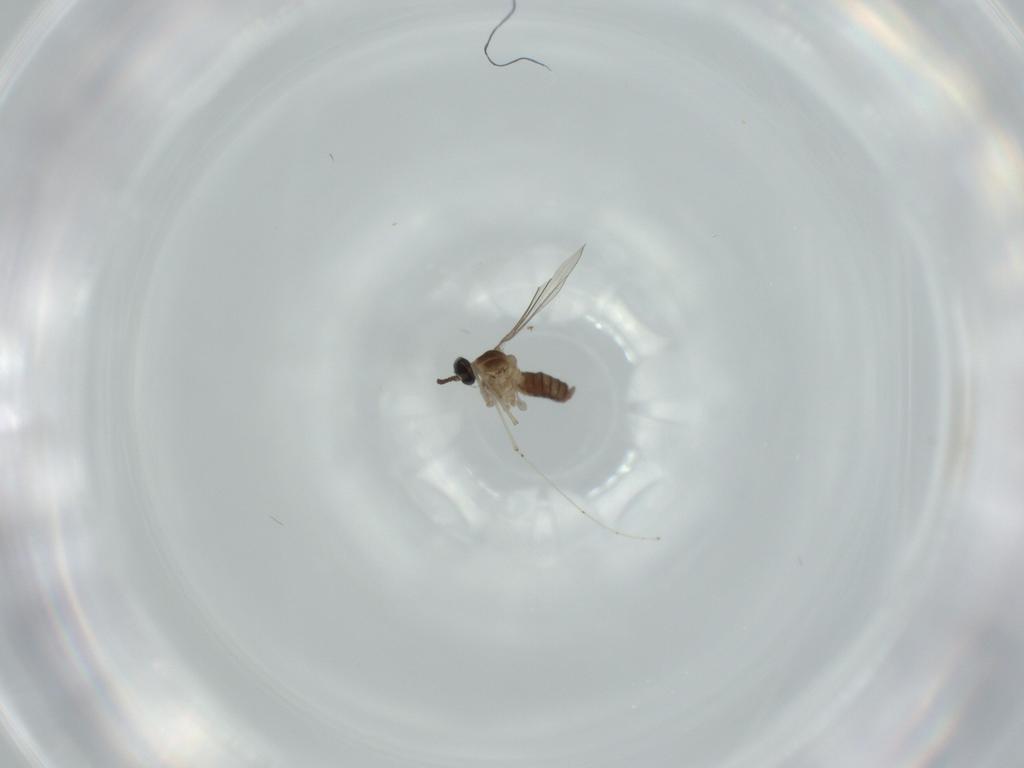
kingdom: Animalia
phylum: Arthropoda
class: Insecta
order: Diptera
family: Cecidomyiidae
